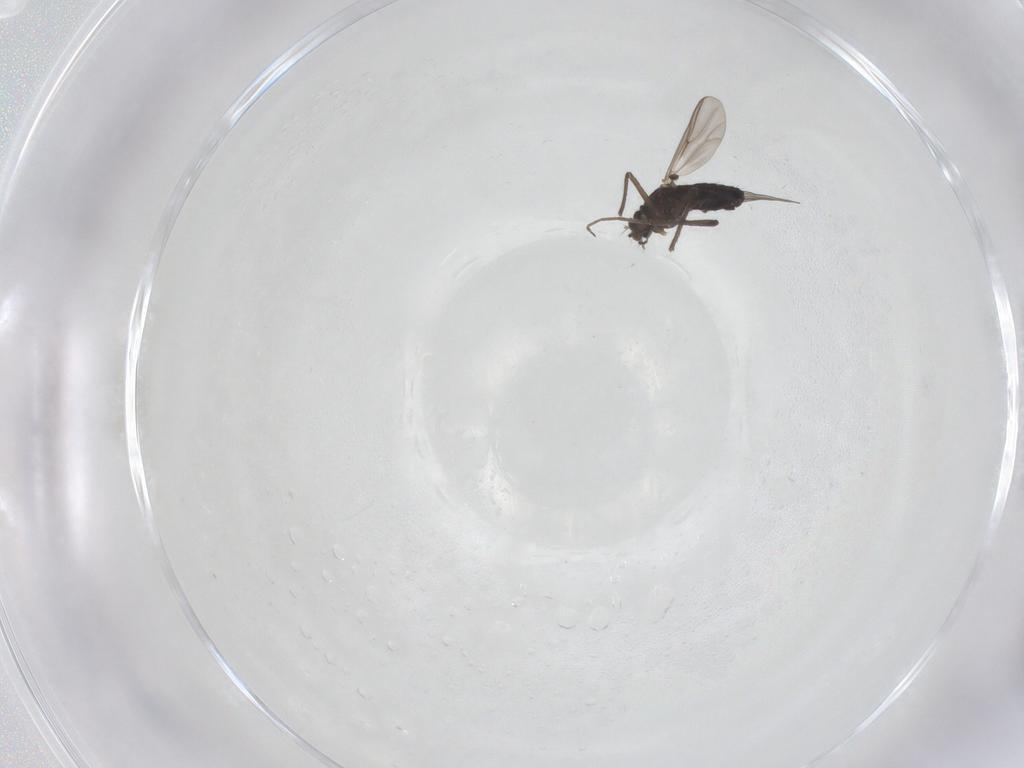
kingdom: Animalia
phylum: Arthropoda
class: Insecta
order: Diptera
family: Chironomidae
